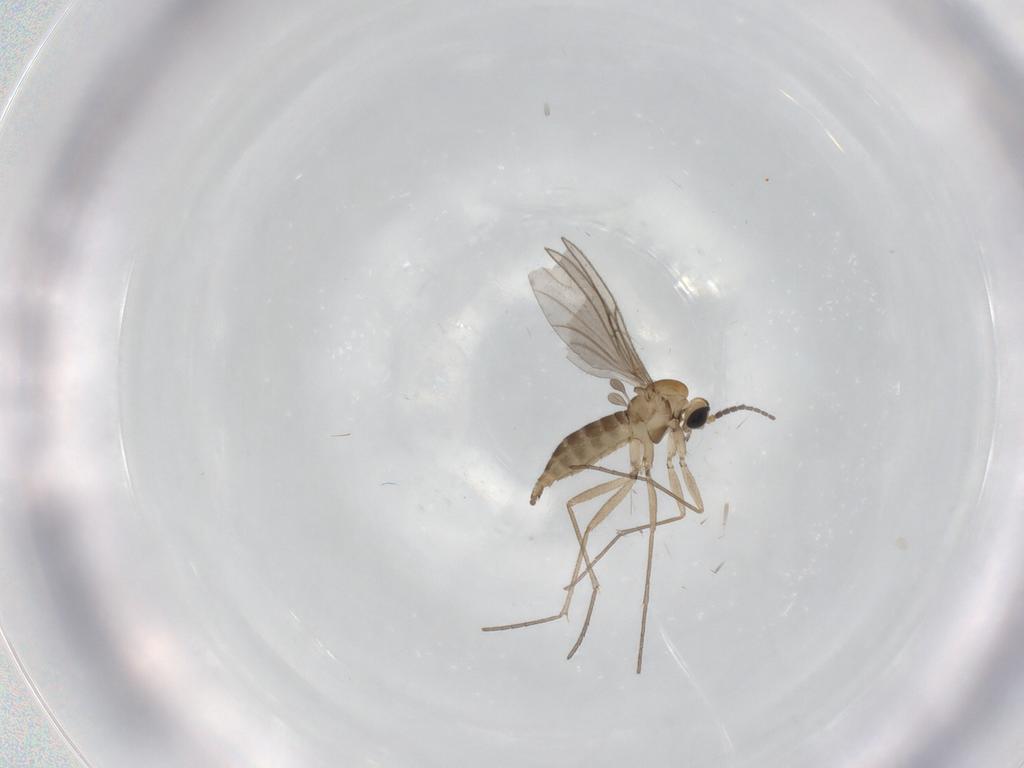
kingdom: Animalia
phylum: Arthropoda
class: Insecta
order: Diptera
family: Sciaridae
